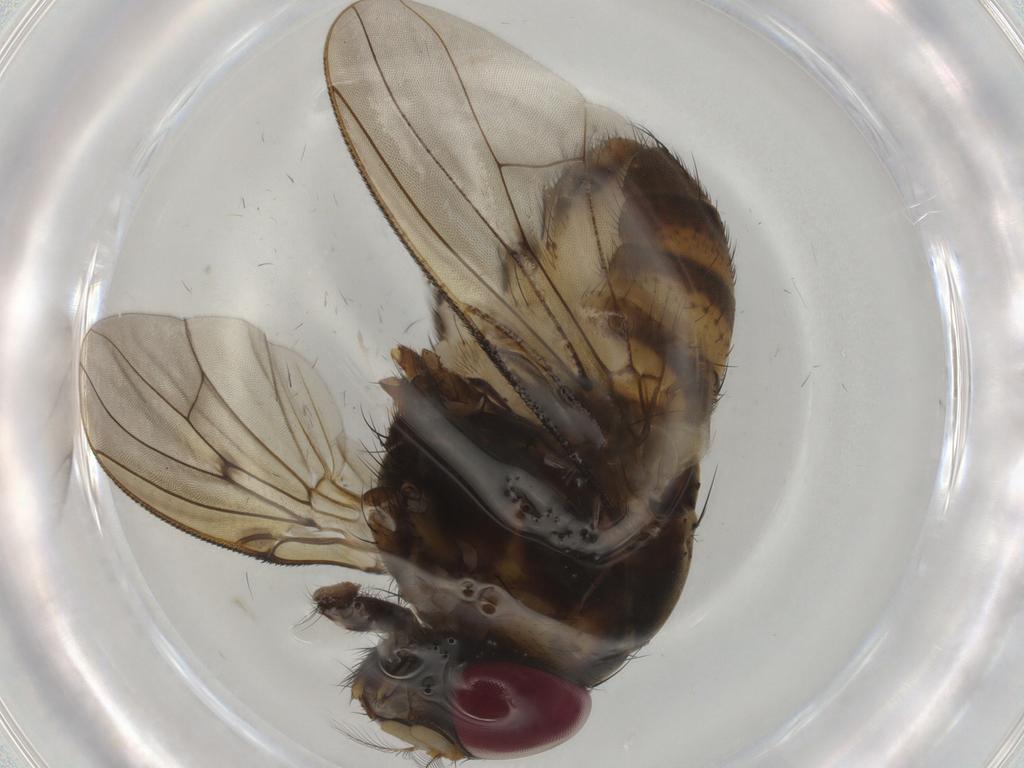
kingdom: Animalia
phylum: Arthropoda
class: Insecta
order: Diptera
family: Muscidae
